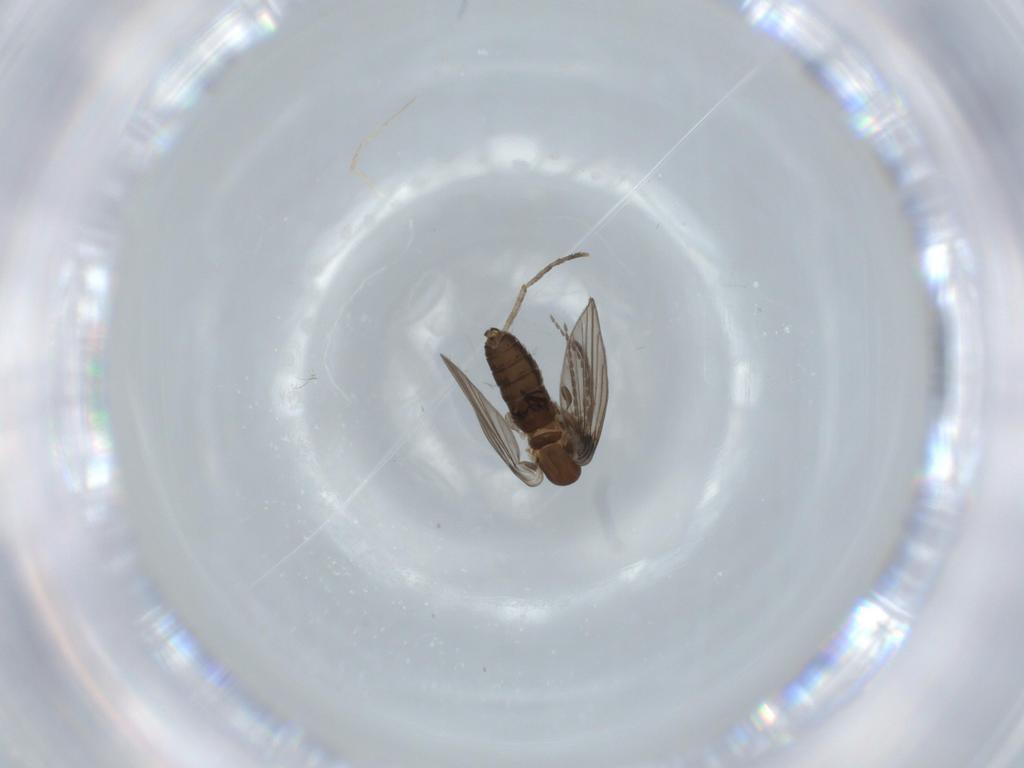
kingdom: Animalia
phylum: Arthropoda
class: Insecta
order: Diptera
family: Psychodidae
